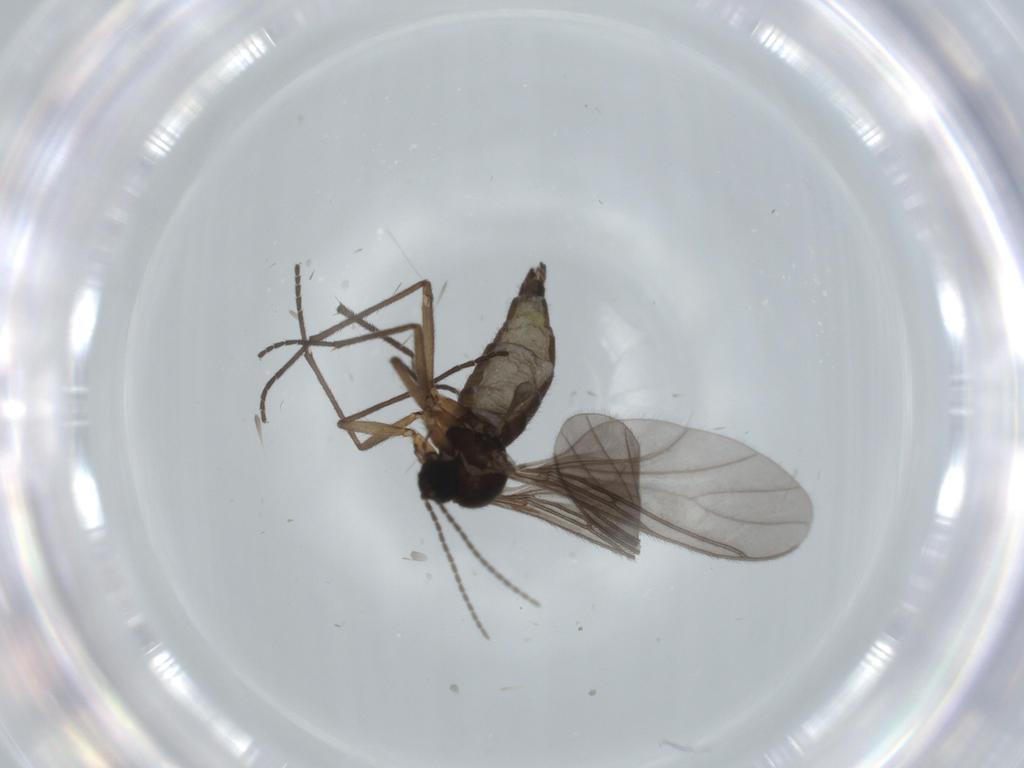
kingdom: Animalia
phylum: Arthropoda
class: Insecta
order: Diptera
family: Sciaridae
